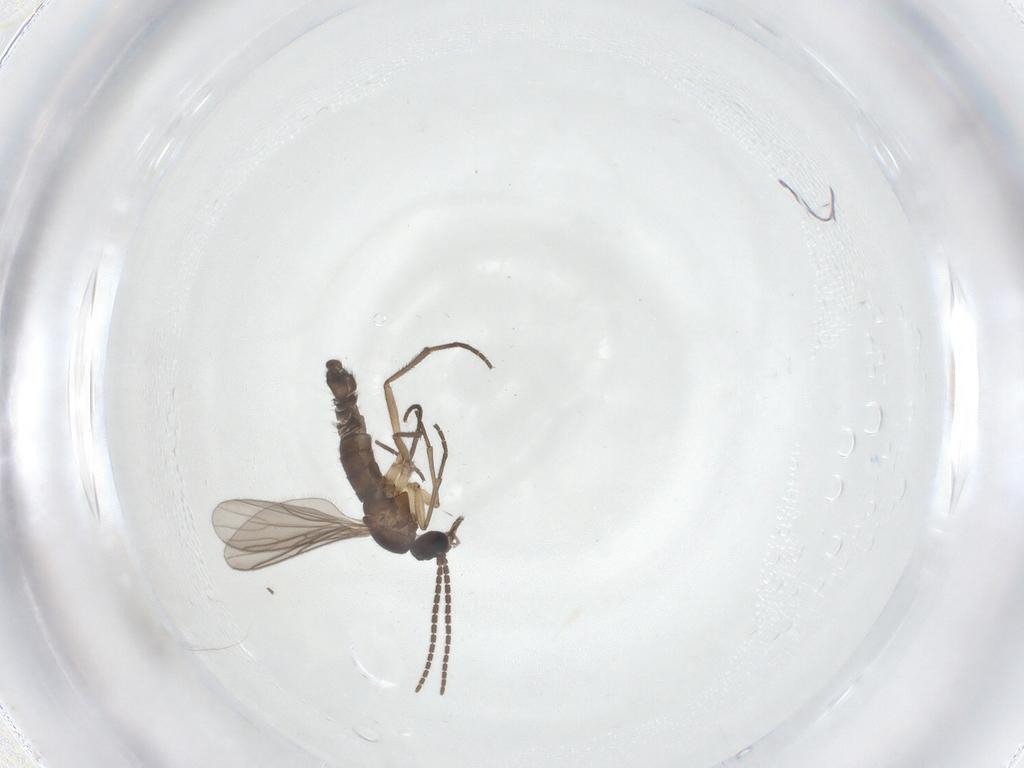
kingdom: Animalia
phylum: Arthropoda
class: Insecta
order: Diptera
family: Sciaridae
